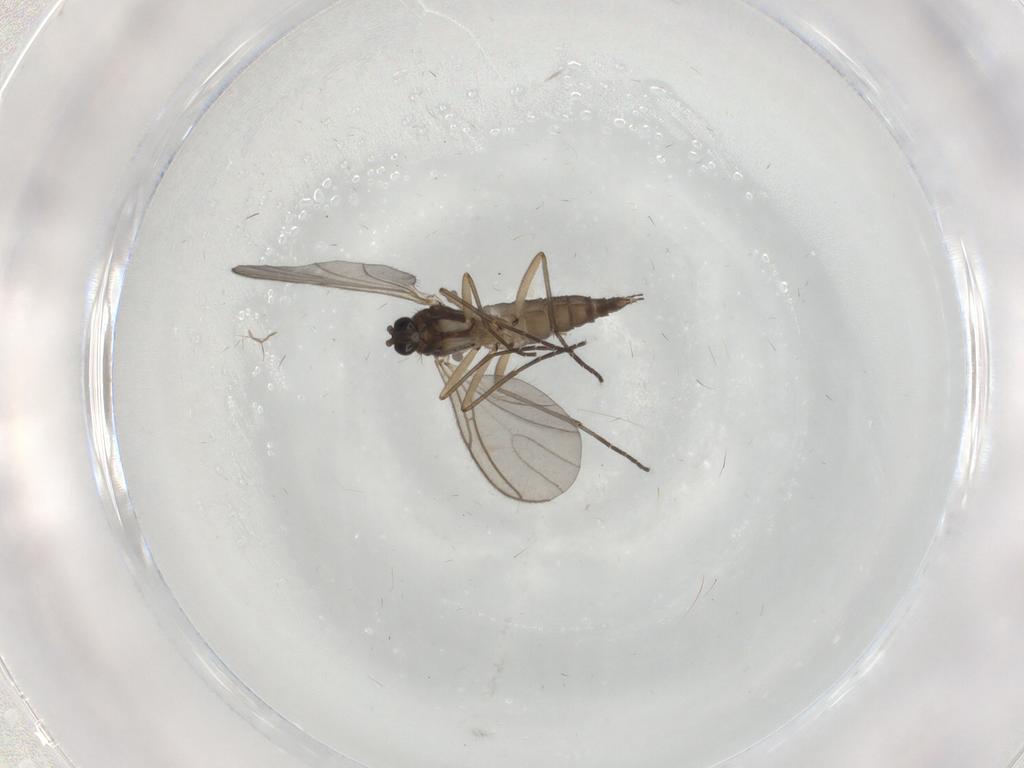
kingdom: Animalia
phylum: Arthropoda
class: Insecta
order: Diptera
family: Sciaridae
